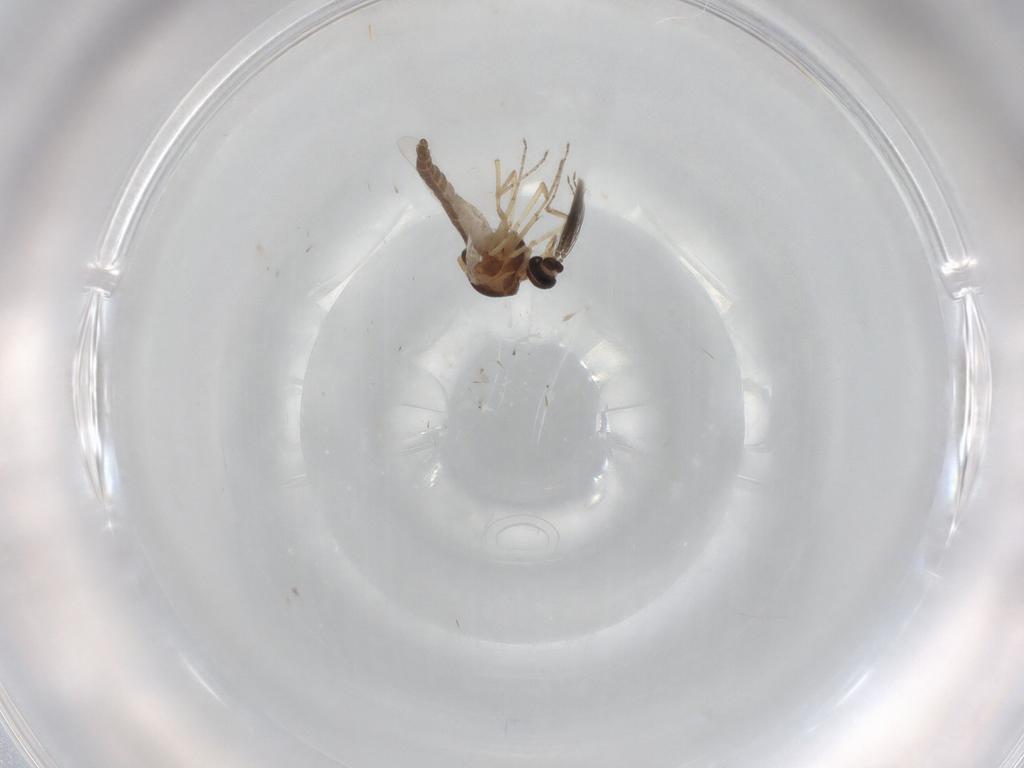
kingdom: Animalia
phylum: Arthropoda
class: Insecta
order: Diptera
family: Ceratopogonidae
